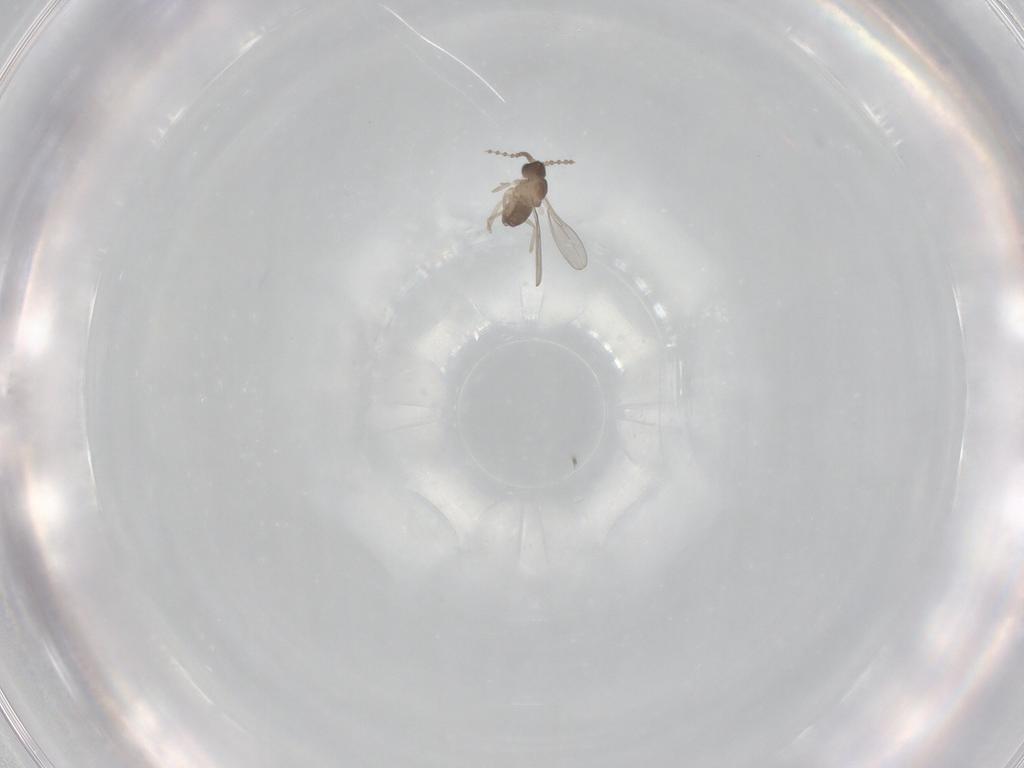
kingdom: Animalia
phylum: Arthropoda
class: Insecta
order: Diptera
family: Cecidomyiidae
